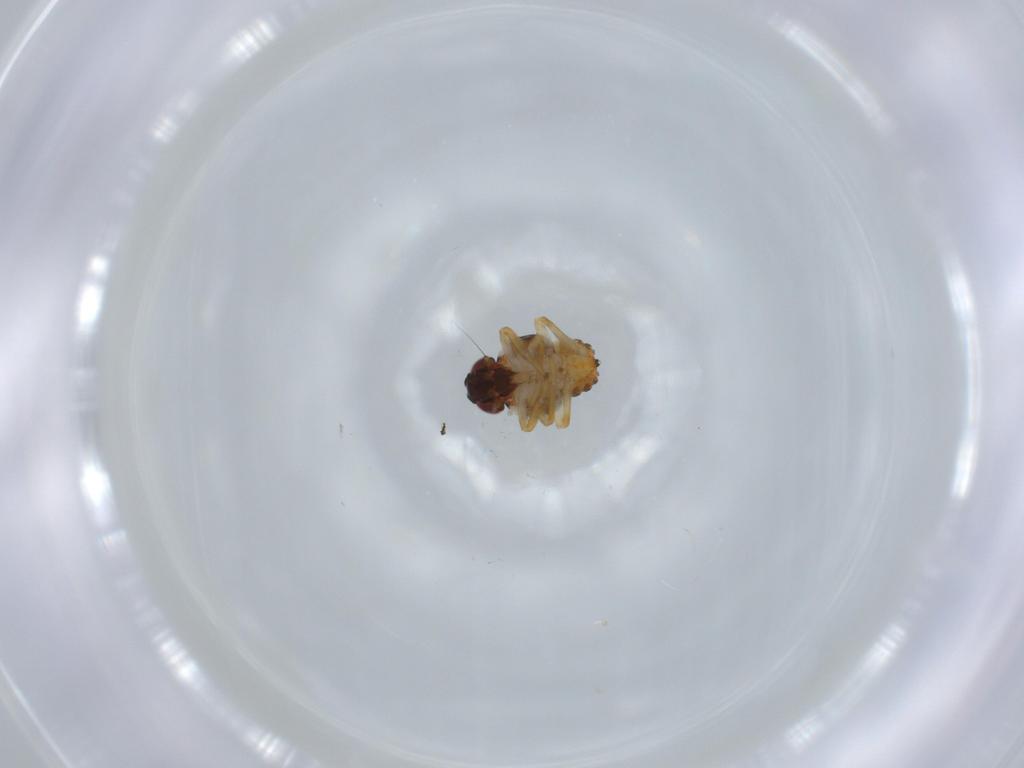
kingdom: Animalia
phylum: Arthropoda
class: Insecta
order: Hemiptera
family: Issidae
